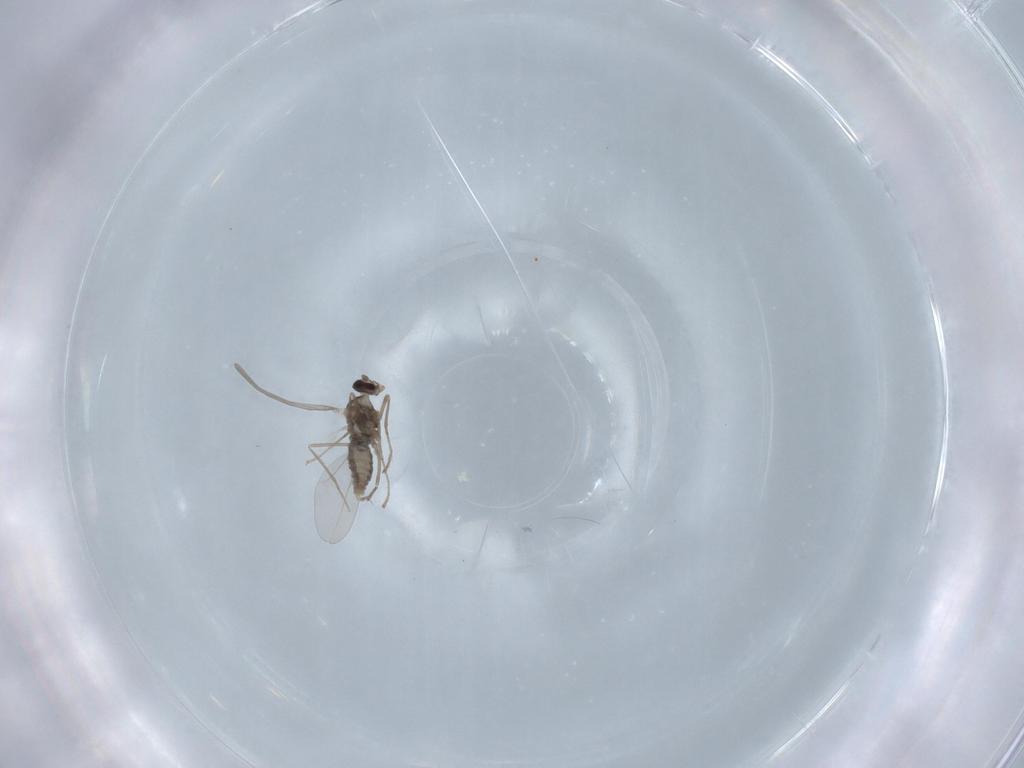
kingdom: Animalia
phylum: Arthropoda
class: Insecta
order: Diptera
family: Cecidomyiidae
